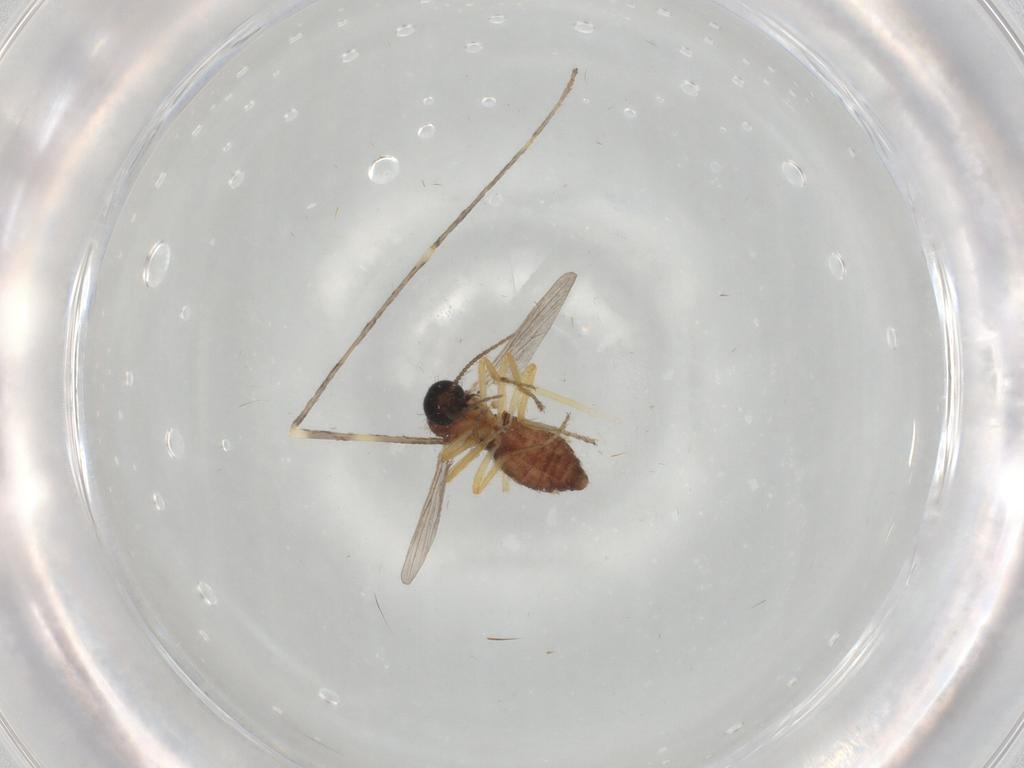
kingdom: Animalia
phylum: Arthropoda
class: Insecta
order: Diptera
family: Ceratopogonidae
